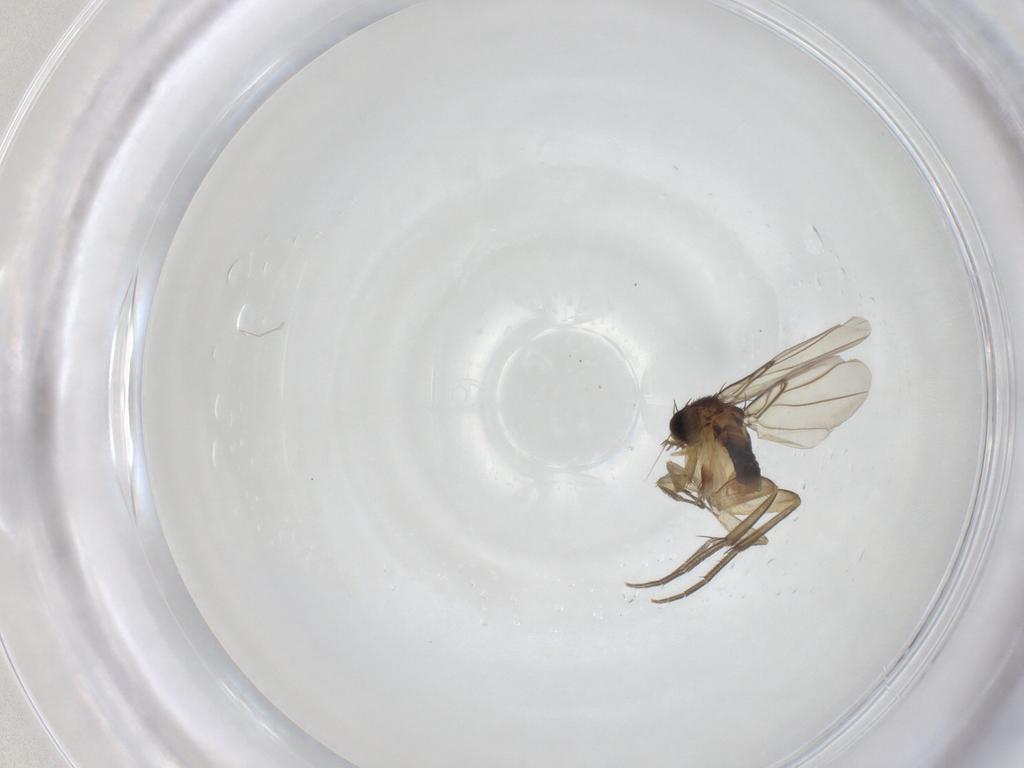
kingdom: Animalia
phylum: Arthropoda
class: Insecta
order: Diptera
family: Phoridae
